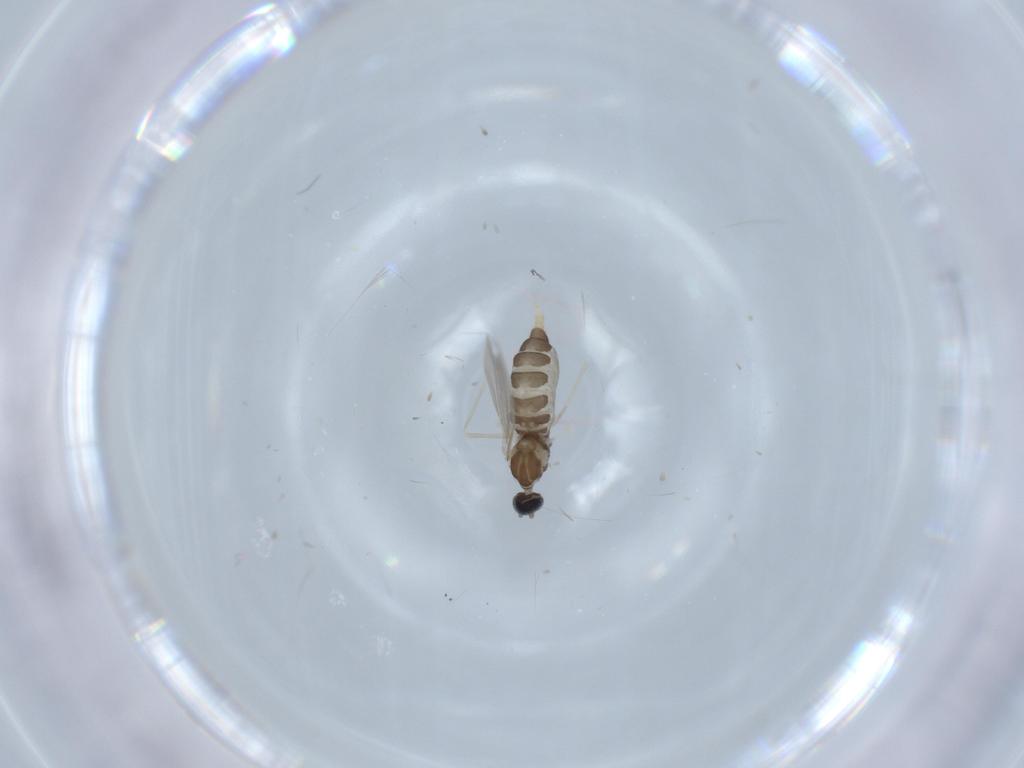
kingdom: Animalia
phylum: Arthropoda
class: Insecta
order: Diptera
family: Cecidomyiidae
